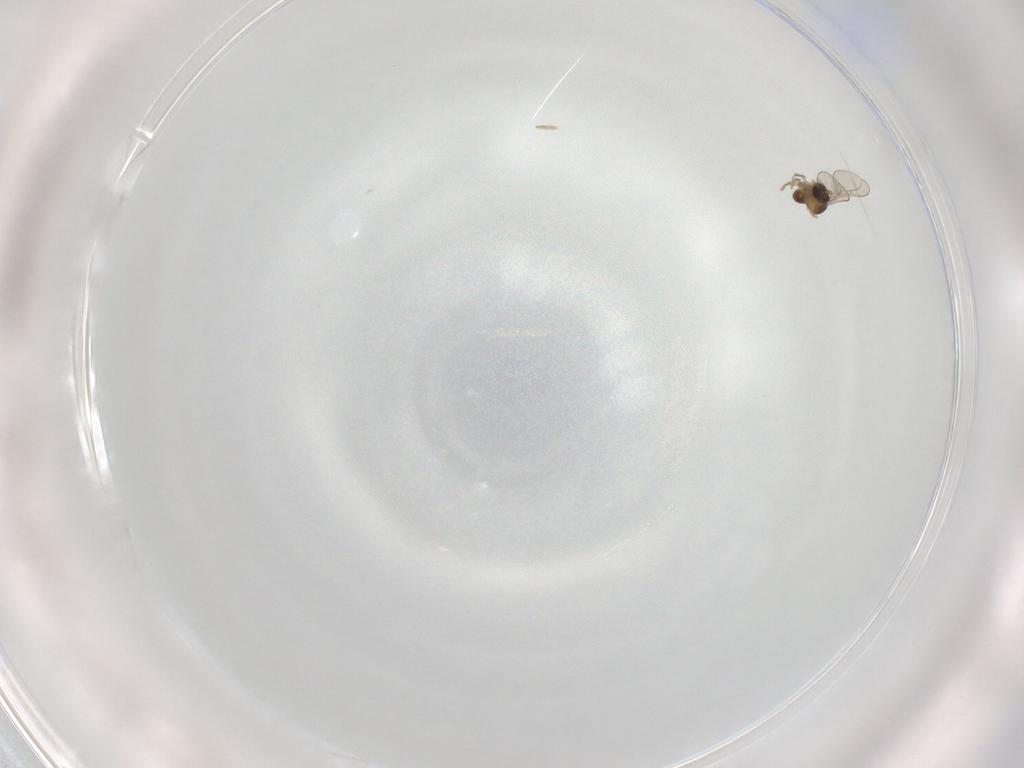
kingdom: Animalia
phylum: Arthropoda
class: Insecta
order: Diptera
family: Cecidomyiidae
